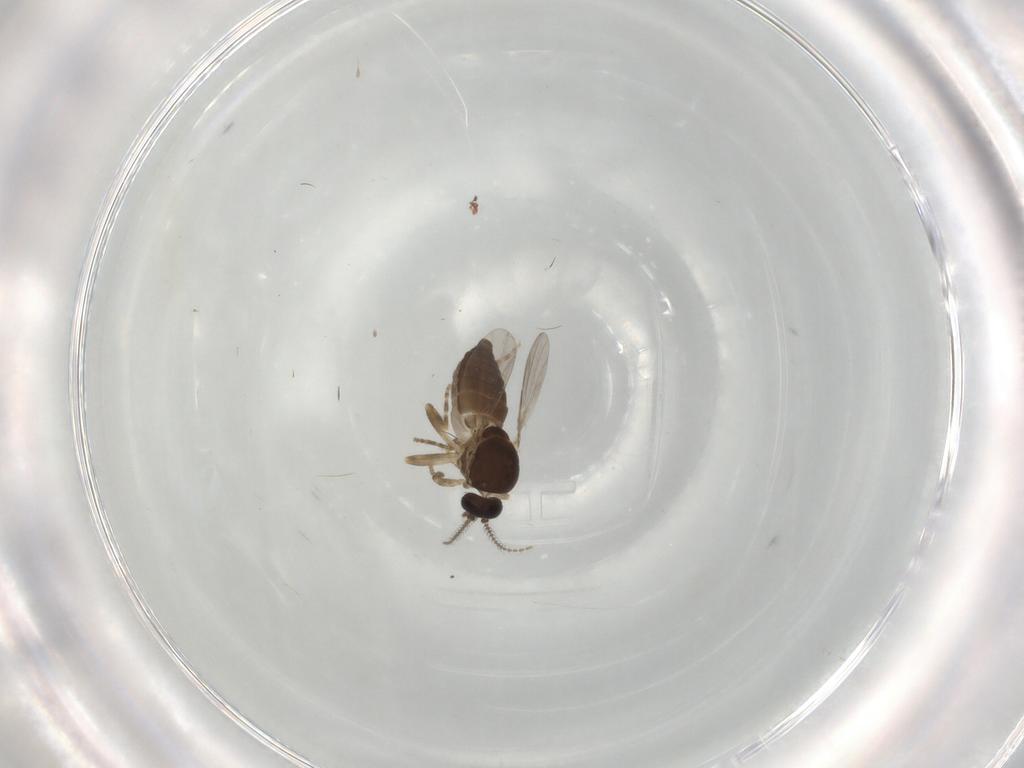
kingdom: Animalia
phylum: Arthropoda
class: Insecta
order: Diptera
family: Ceratopogonidae
